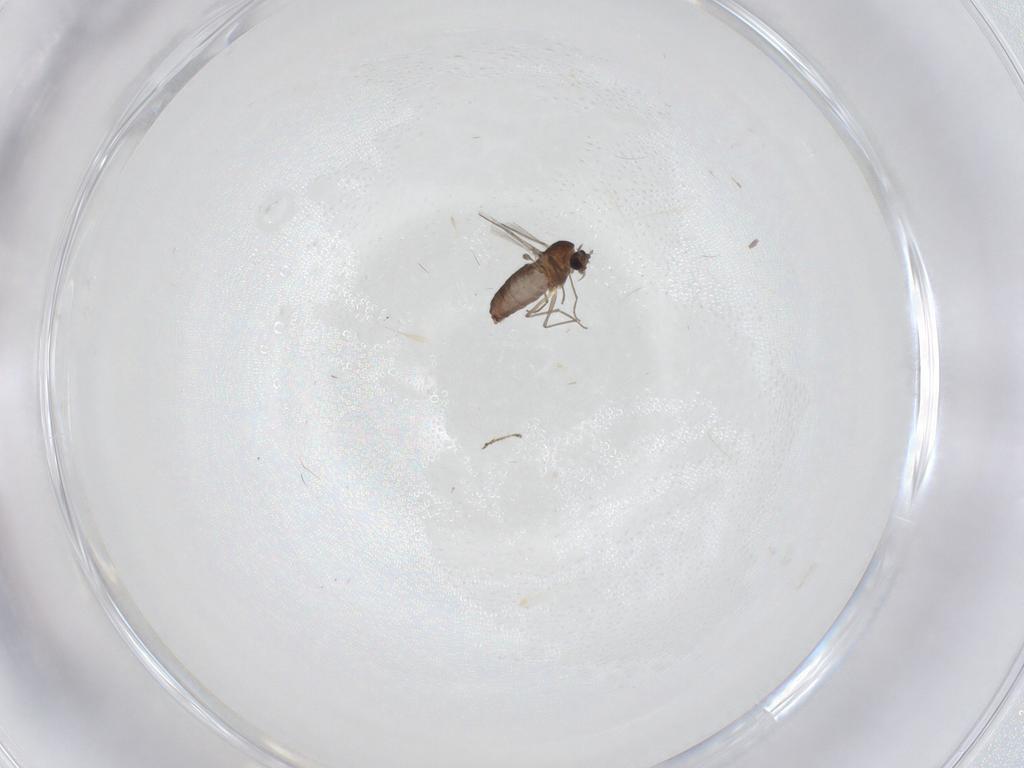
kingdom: Animalia
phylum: Arthropoda
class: Insecta
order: Diptera
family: Chironomidae
